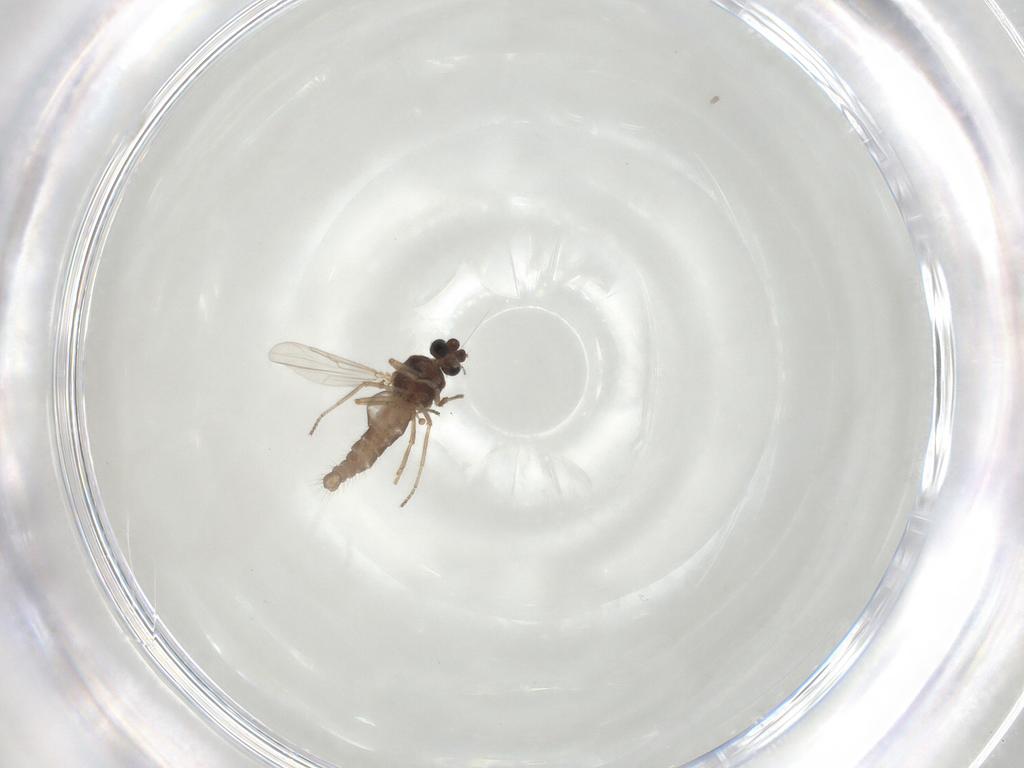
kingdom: Animalia
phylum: Arthropoda
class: Insecta
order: Diptera
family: Ceratopogonidae
